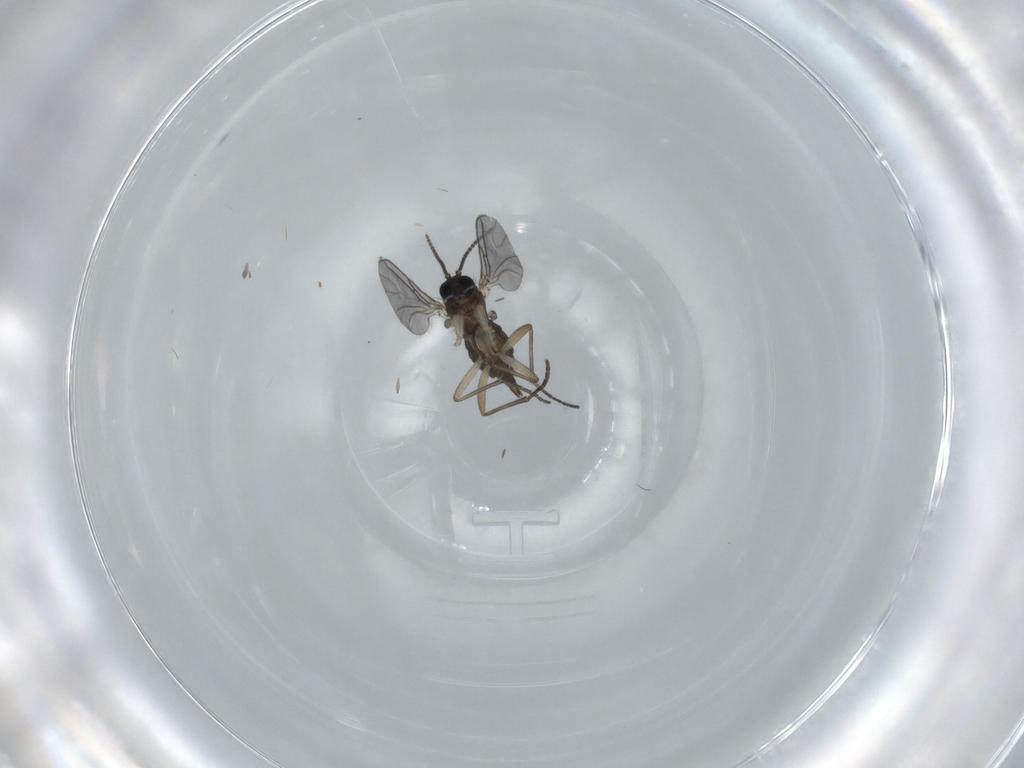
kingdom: Animalia
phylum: Arthropoda
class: Insecta
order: Diptera
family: Sciaridae
